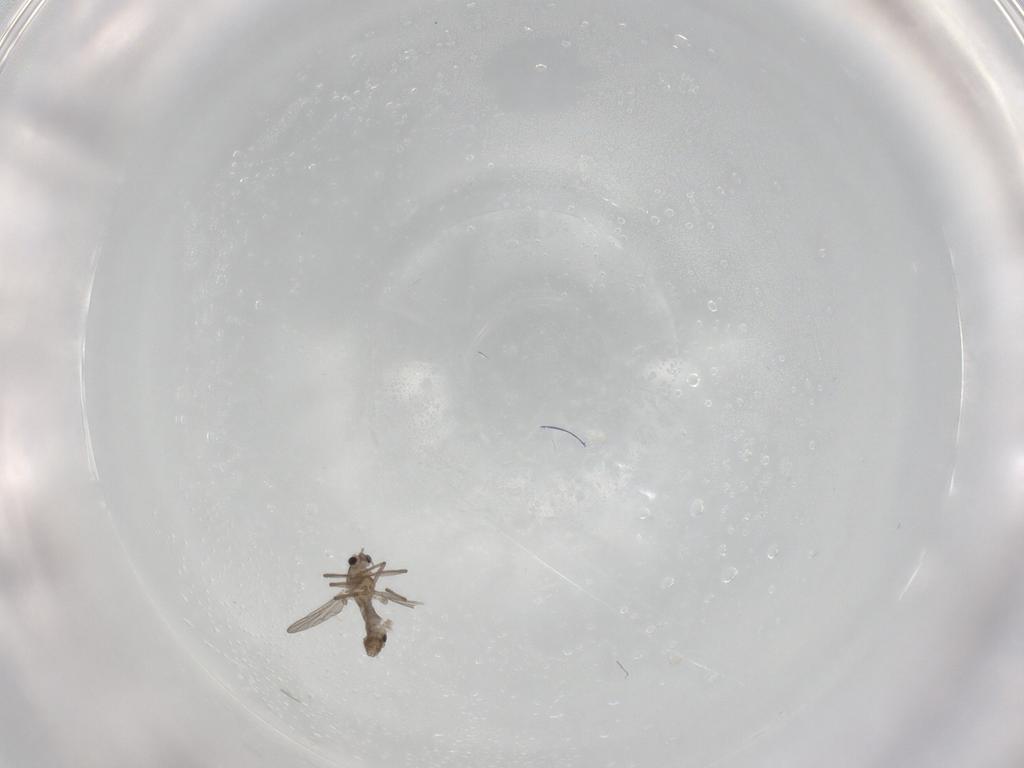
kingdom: Animalia
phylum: Arthropoda
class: Insecta
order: Diptera
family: Chironomidae
